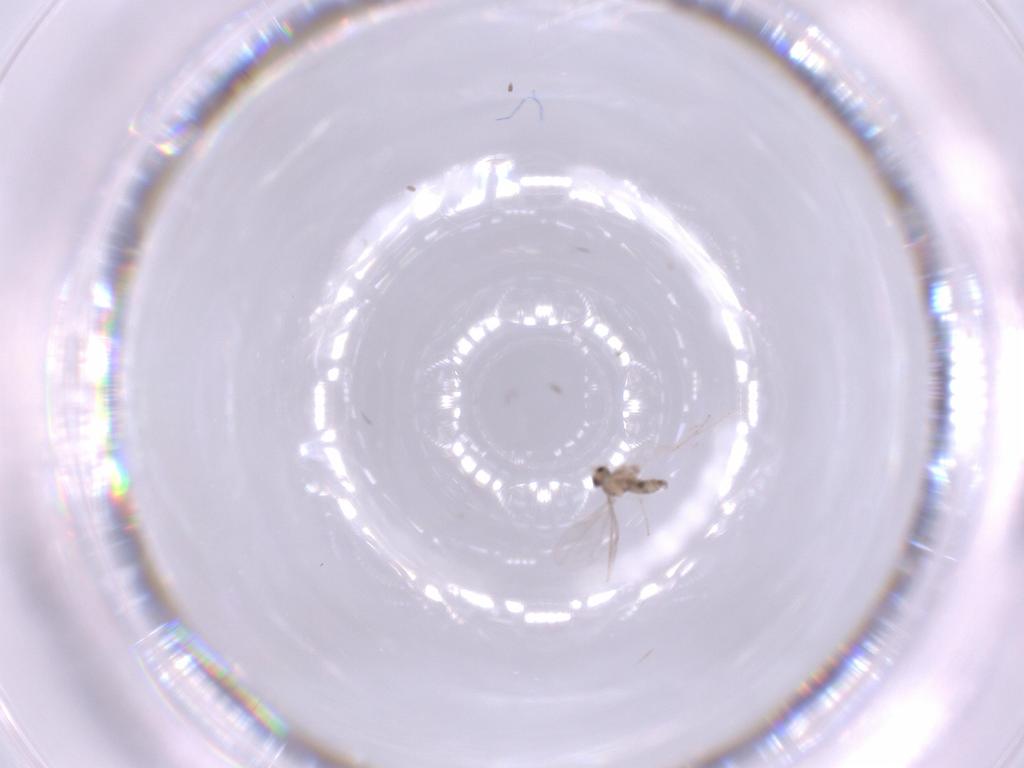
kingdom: Animalia
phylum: Arthropoda
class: Insecta
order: Diptera
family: Cecidomyiidae
